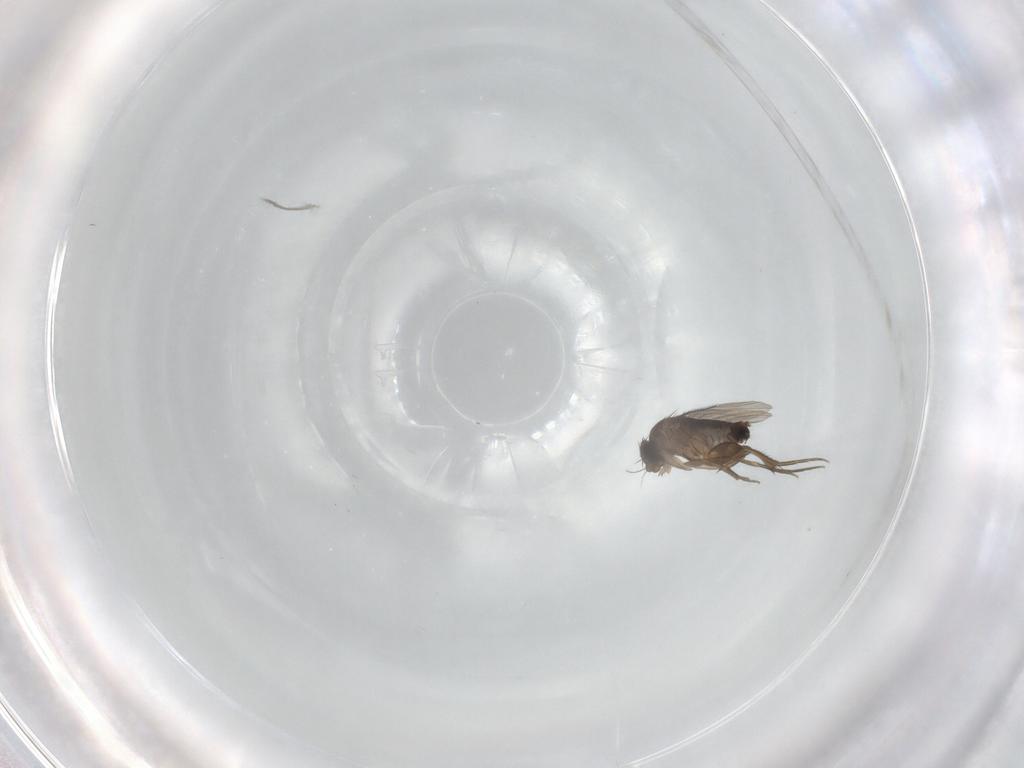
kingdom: Animalia
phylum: Arthropoda
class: Insecta
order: Diptera
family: Phoridae
